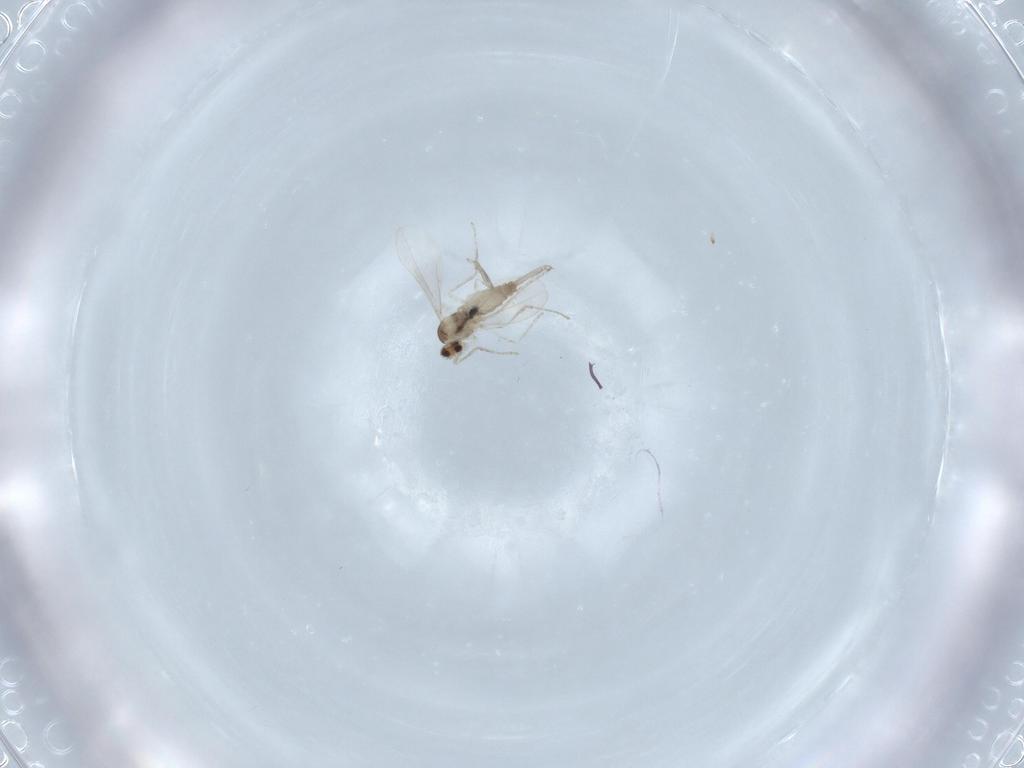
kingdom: Animalia
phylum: Arthropoda
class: Insecta
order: Diptera
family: Cecidomyiidae
